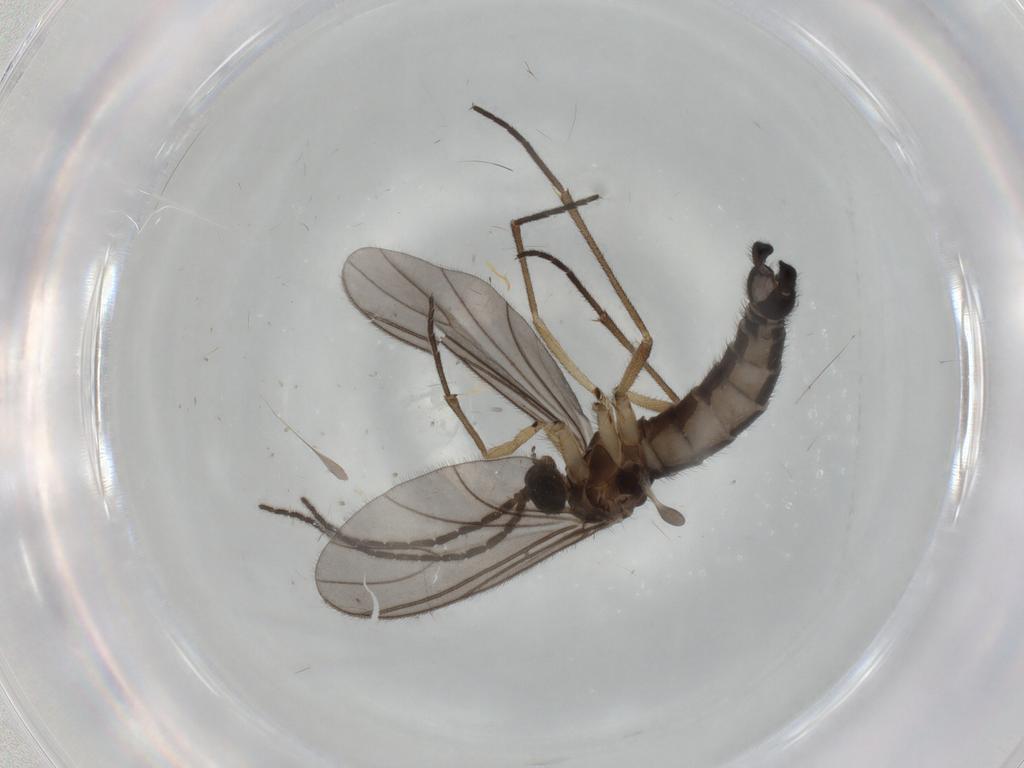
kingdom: Animalia
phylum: Arthropoda
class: Insecta
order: Diptera
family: Sciaridae
